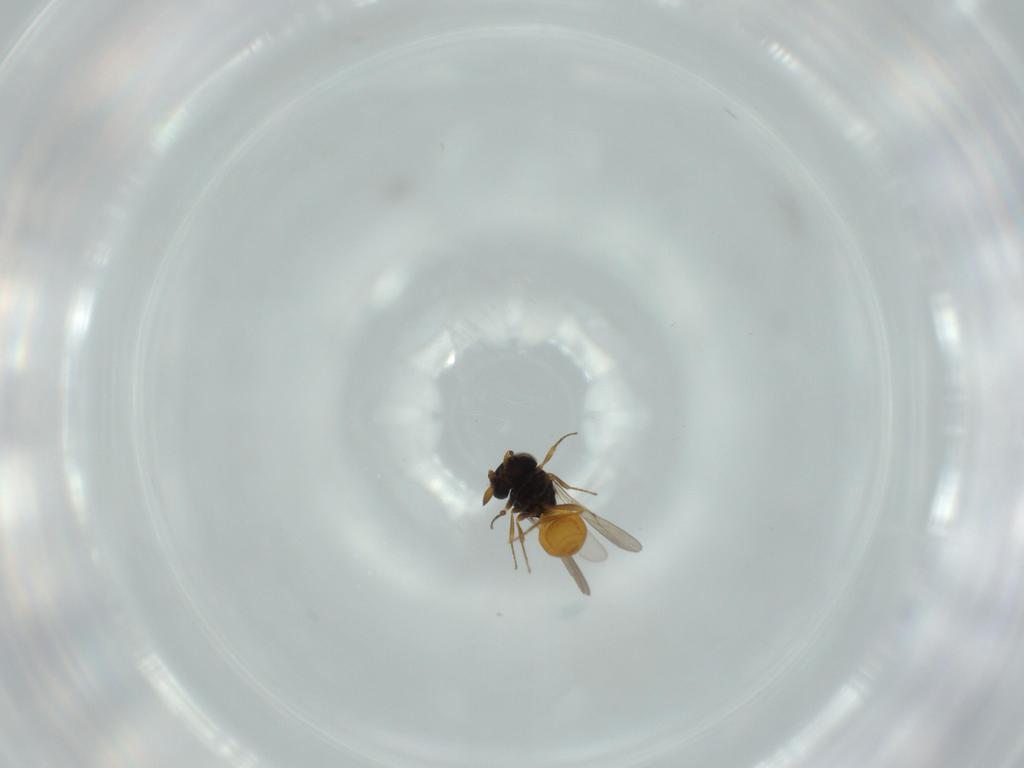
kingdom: Animalia
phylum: Arthropoda
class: Insecta
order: Hymenoptera
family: Scelionidae
